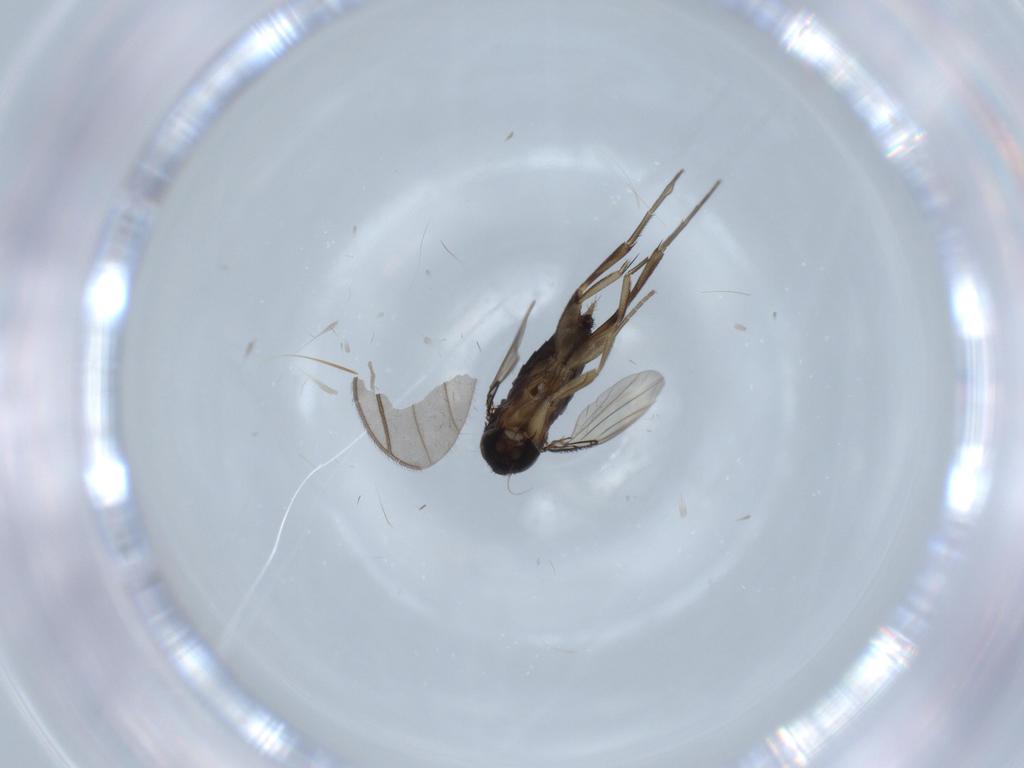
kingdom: Animalia
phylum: Arthropoda
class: Insecta
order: Diptera
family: Phoridae
